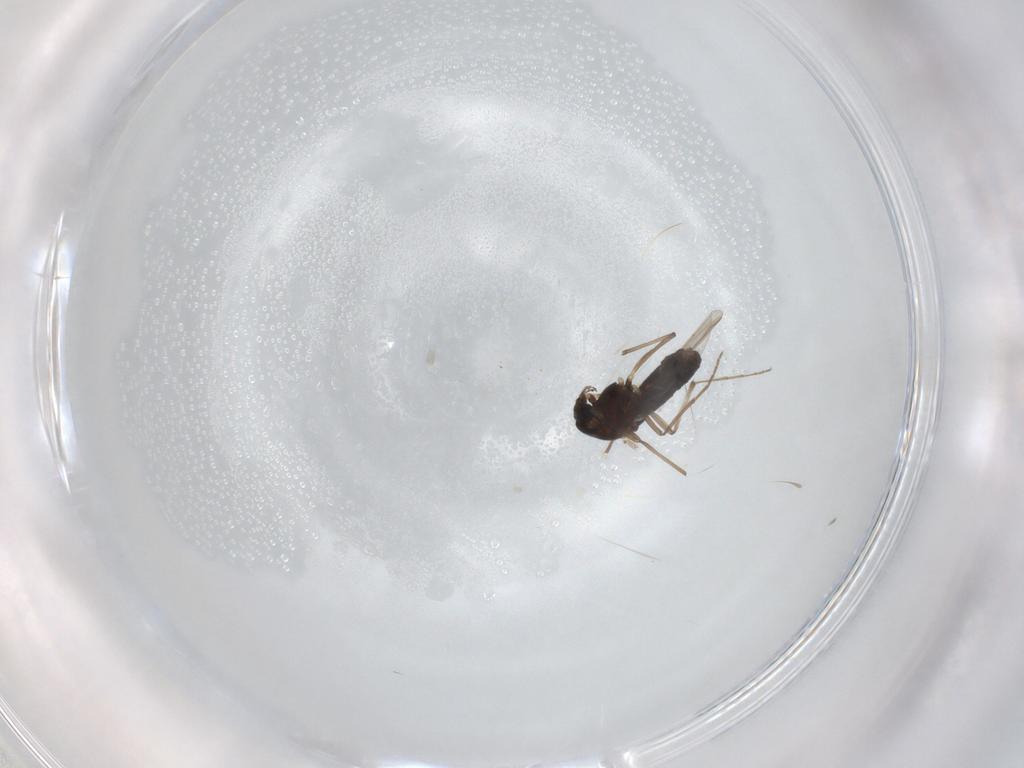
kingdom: Animalia
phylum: Arthropoda
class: Insecta
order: Diptera
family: Chironomidae
